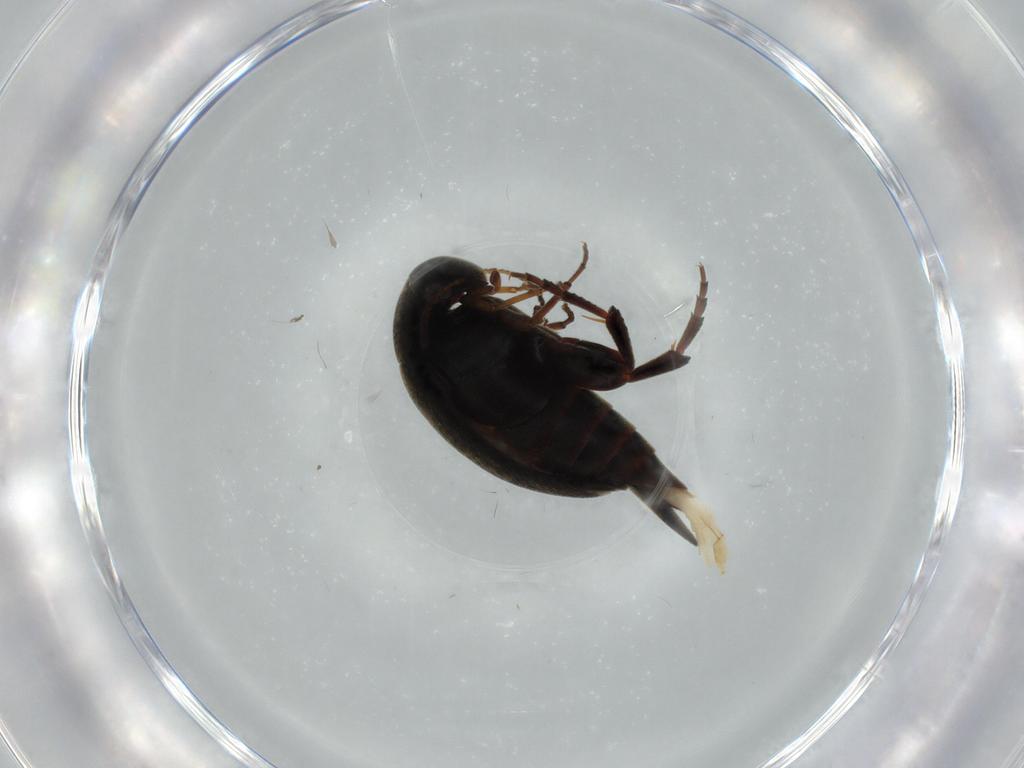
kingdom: Animalia
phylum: Arthropoda
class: Insecta
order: Coleoptera
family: Mordellidae
